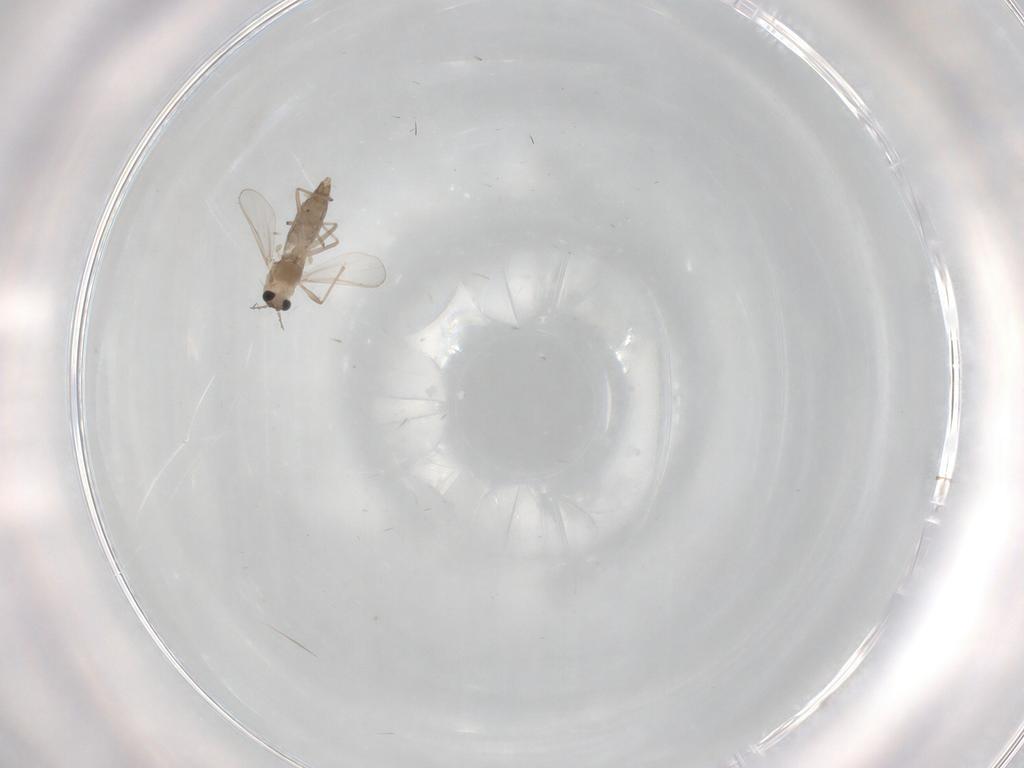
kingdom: Animalia
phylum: Arthropoda
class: Insecta
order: Diptera
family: Chironomidae
